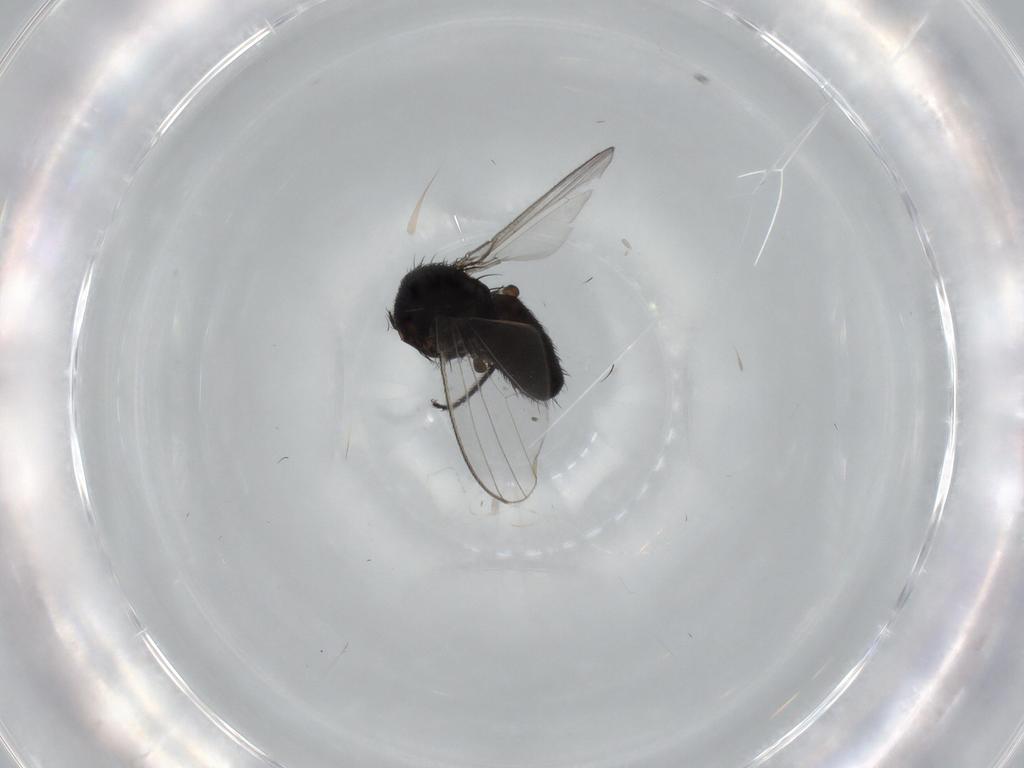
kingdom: Animalia
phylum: Arthropoda
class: Insecta
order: Diptera
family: Milichiidae
